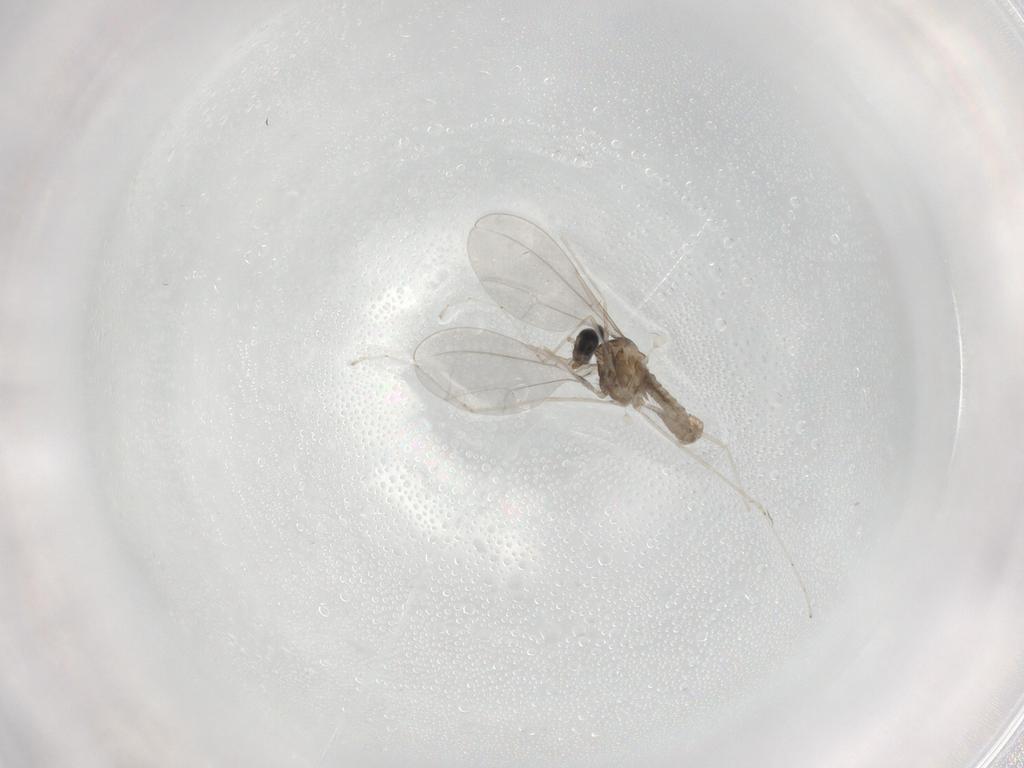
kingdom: Animalia
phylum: Arthropoda
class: Insecta
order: Diptera
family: Cecidomyiidae
